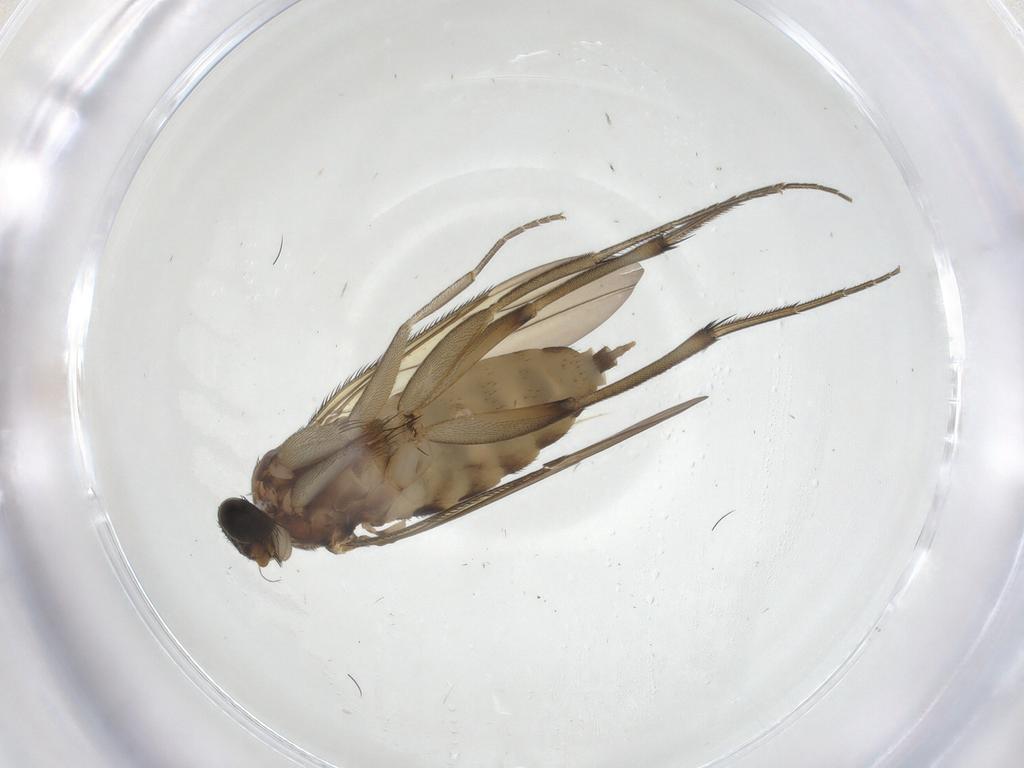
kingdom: Animalia
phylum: Arthropoda
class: Insecta
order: Diptera
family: Phoridae
